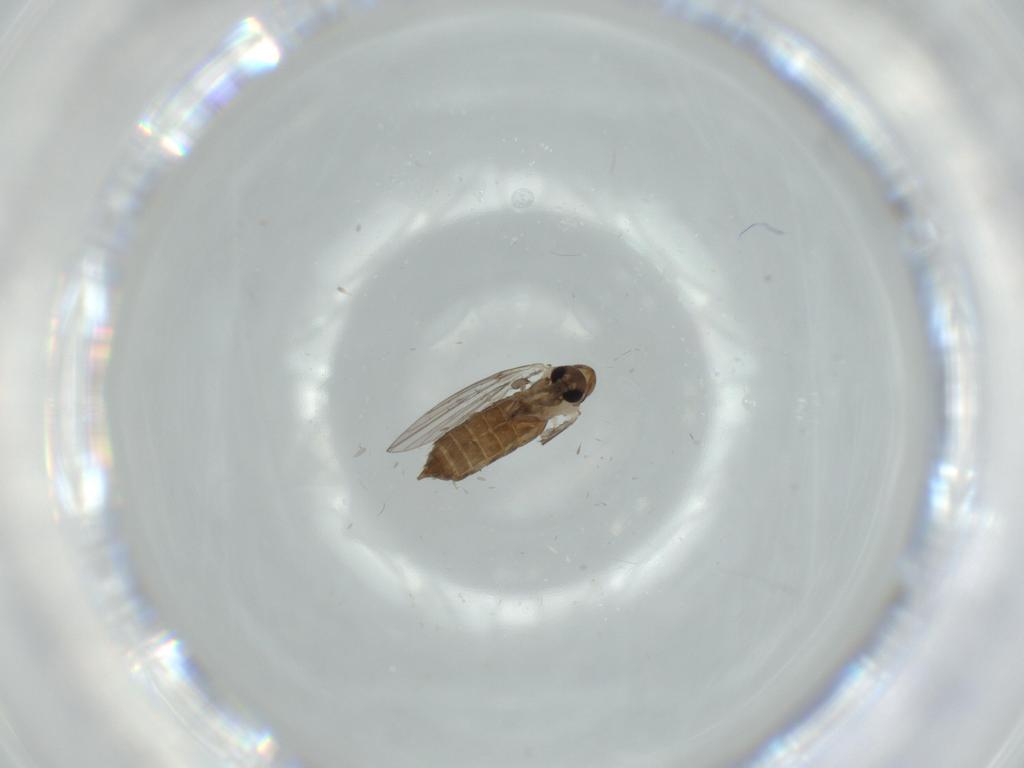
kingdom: Animalia
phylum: Arthropoda
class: Insecta
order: Diptera
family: Psychodidae
